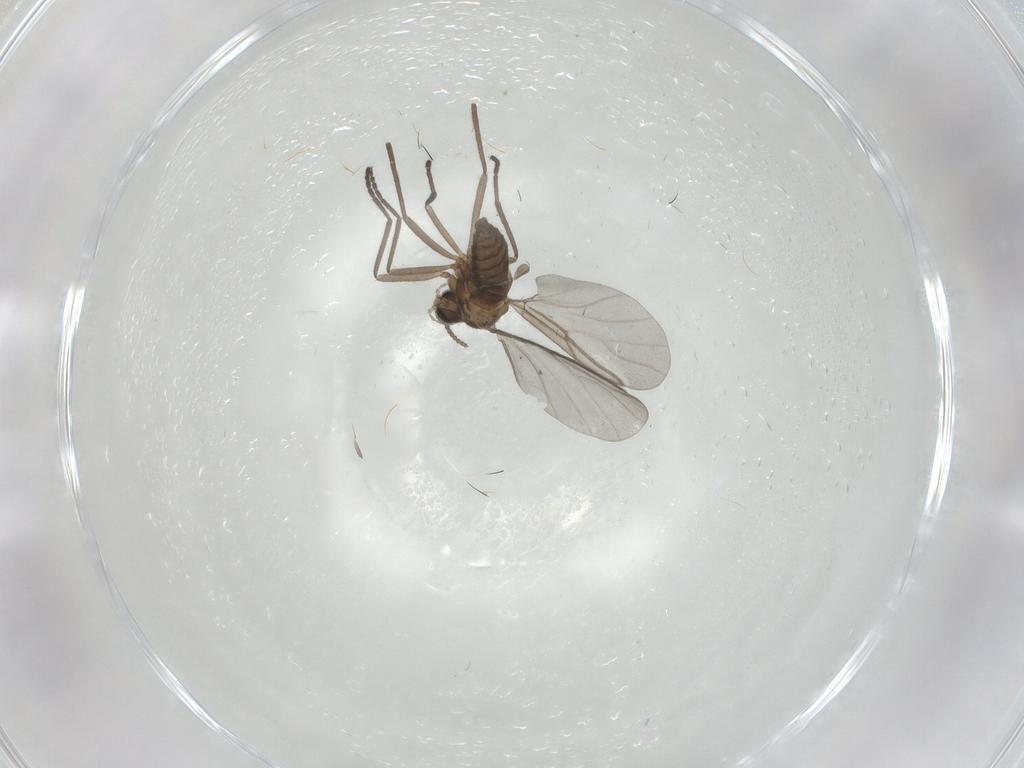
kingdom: Animalia
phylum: Arthropoda
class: Insecta
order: Diptera
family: Cecidomyiidae
